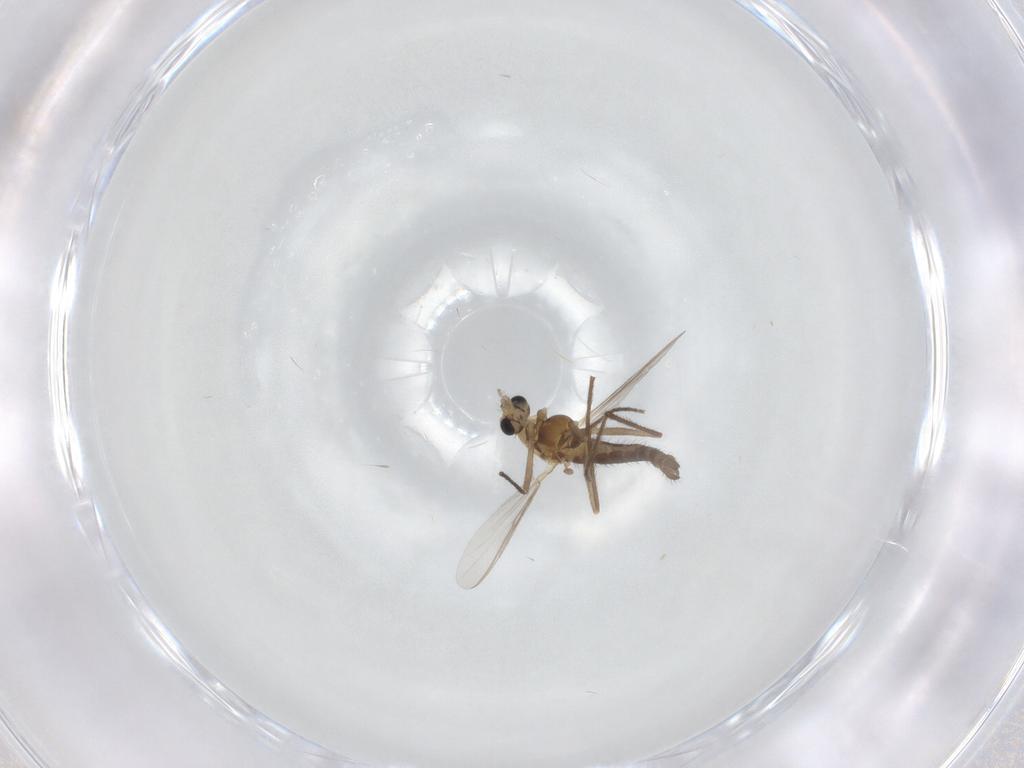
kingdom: Animalia
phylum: Arthropoda
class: Insecta
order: Diptera
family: Chironomidae
